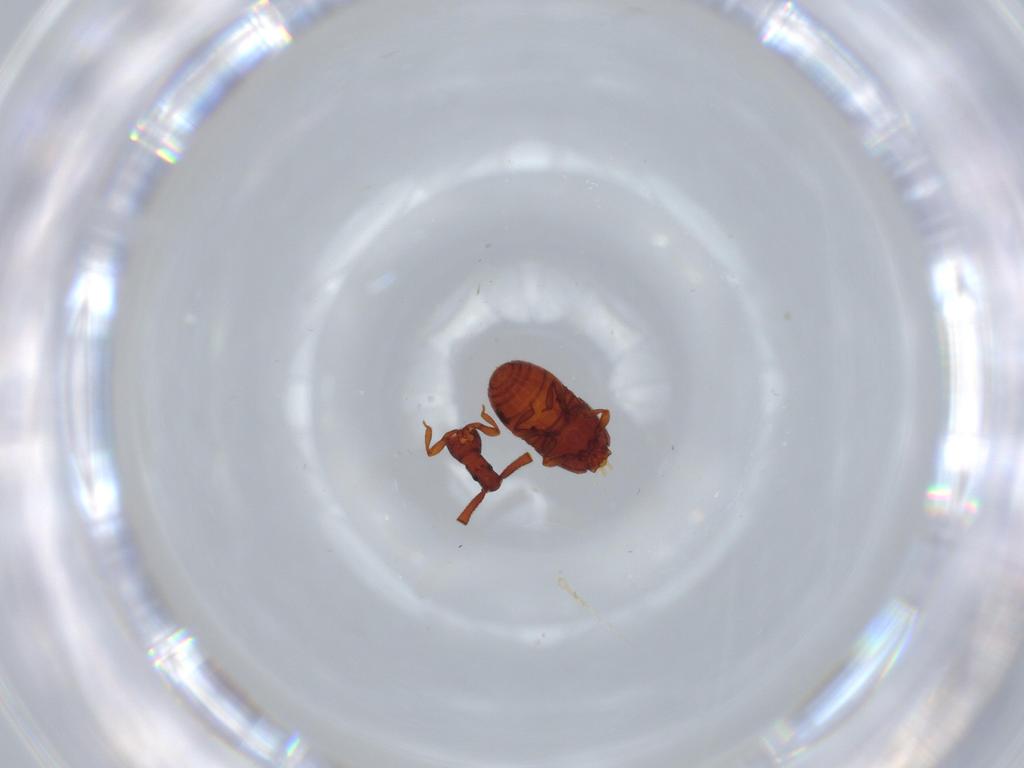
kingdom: Animalia
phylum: Arthropoda
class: Insecta
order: Coleoptera
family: Staphylinidae
